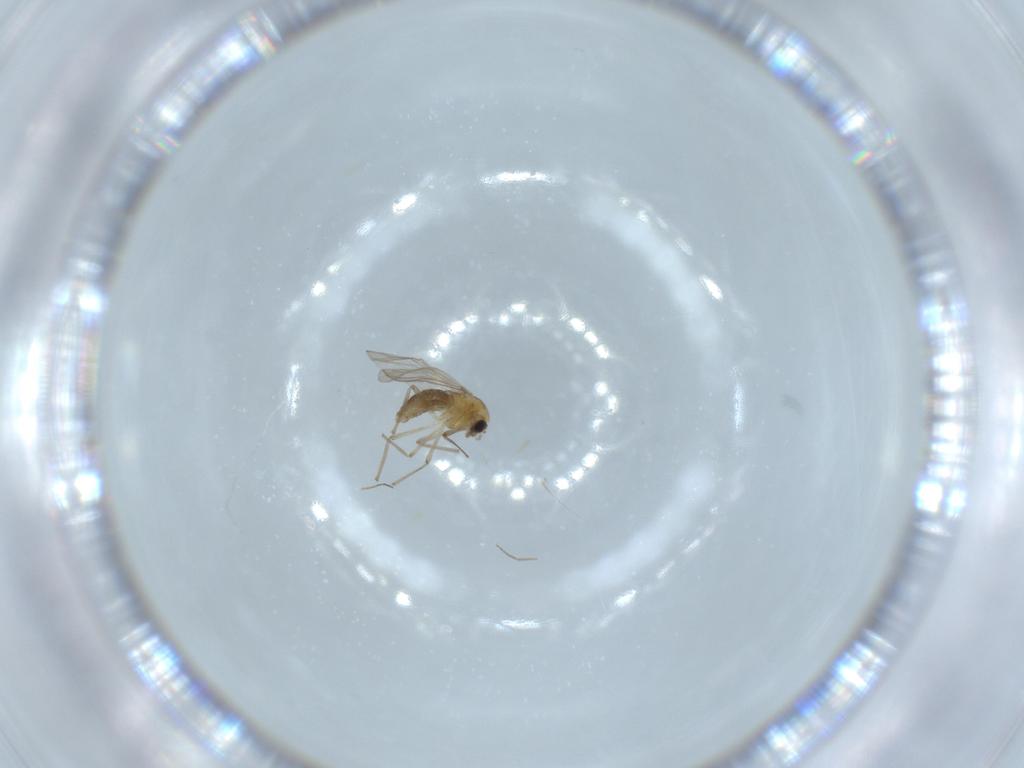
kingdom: Animalia
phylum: Arthropoda
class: Insecta
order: Diptera
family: Chironomidae
